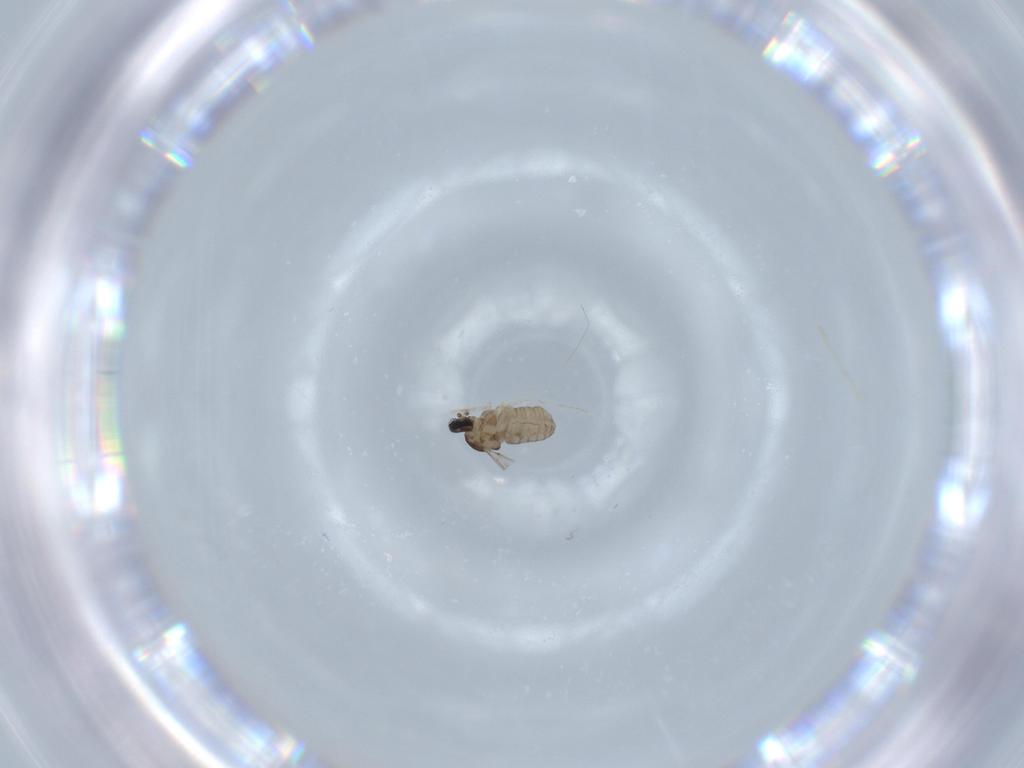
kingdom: Animalia
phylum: Arthropoda
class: Insecta
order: Diptera
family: Cecidomyiidae
